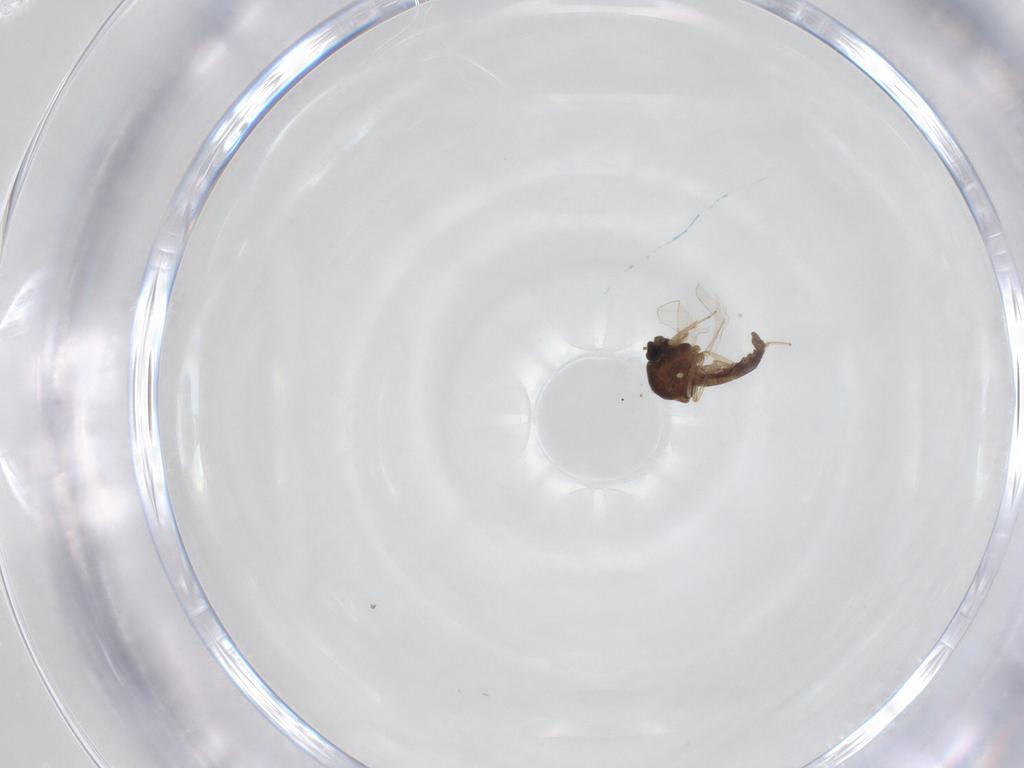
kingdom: Animalia
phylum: Arthropoda
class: Insecta
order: Diptera
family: Ceratopogonidae
